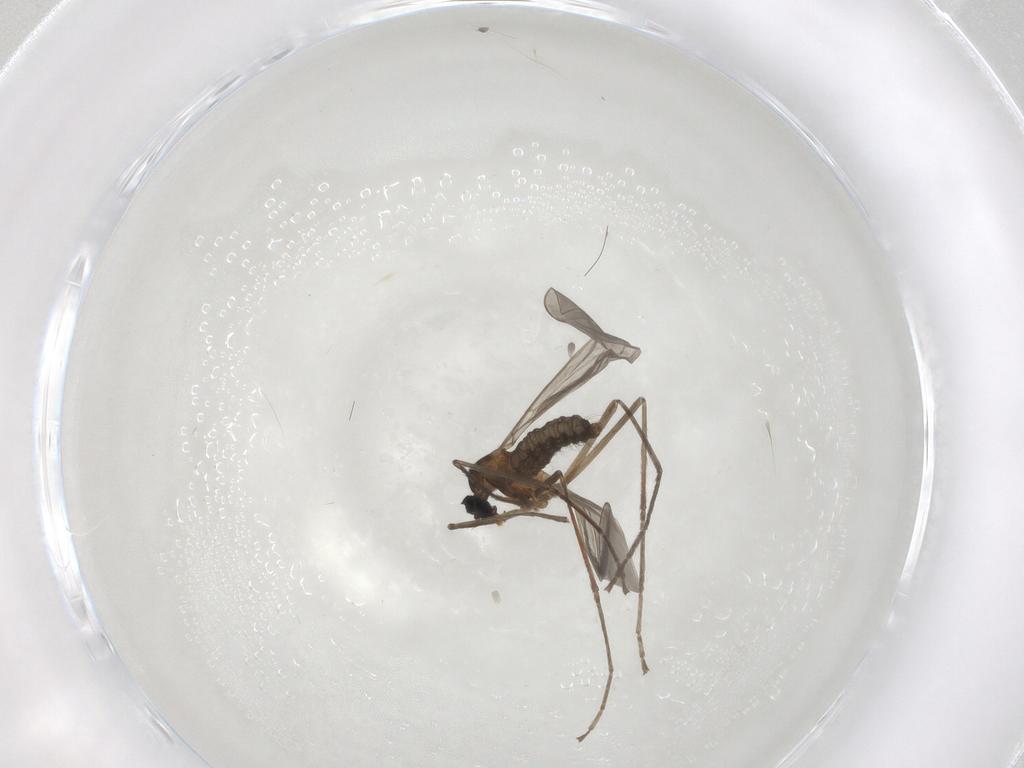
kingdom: Animalia
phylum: Arthropoda
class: Insecta
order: Diptera
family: Cecidomyiidae
